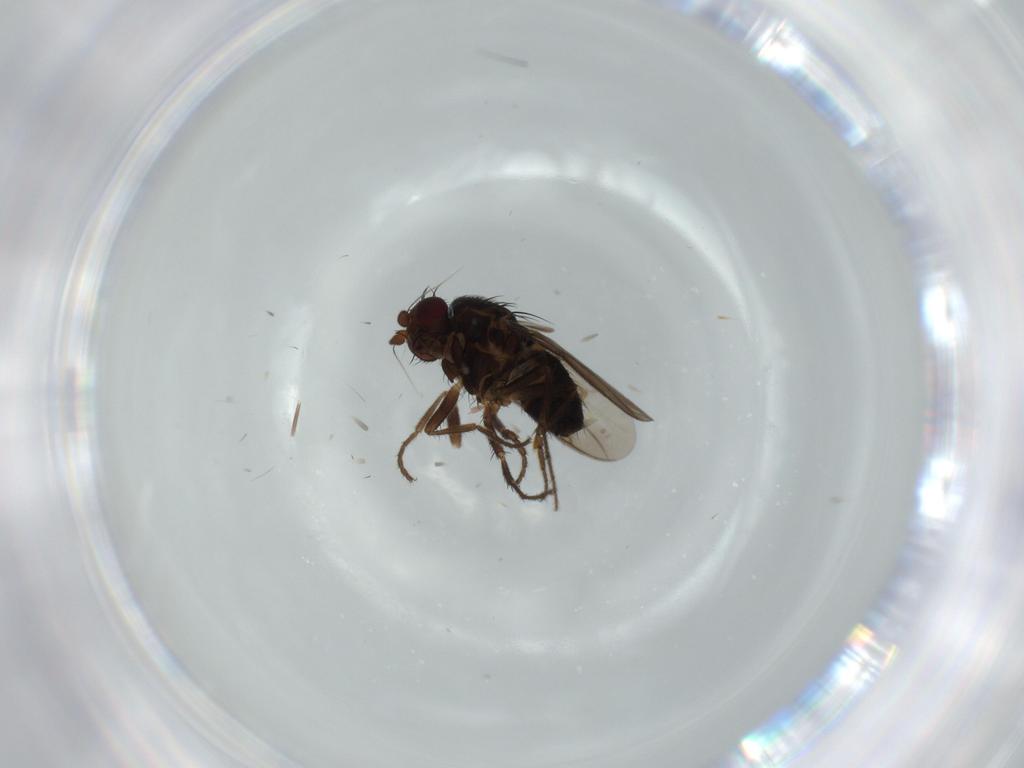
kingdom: Animalia
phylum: Arthropoda
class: Insecta
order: Diptera
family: Sphaeroceridae
